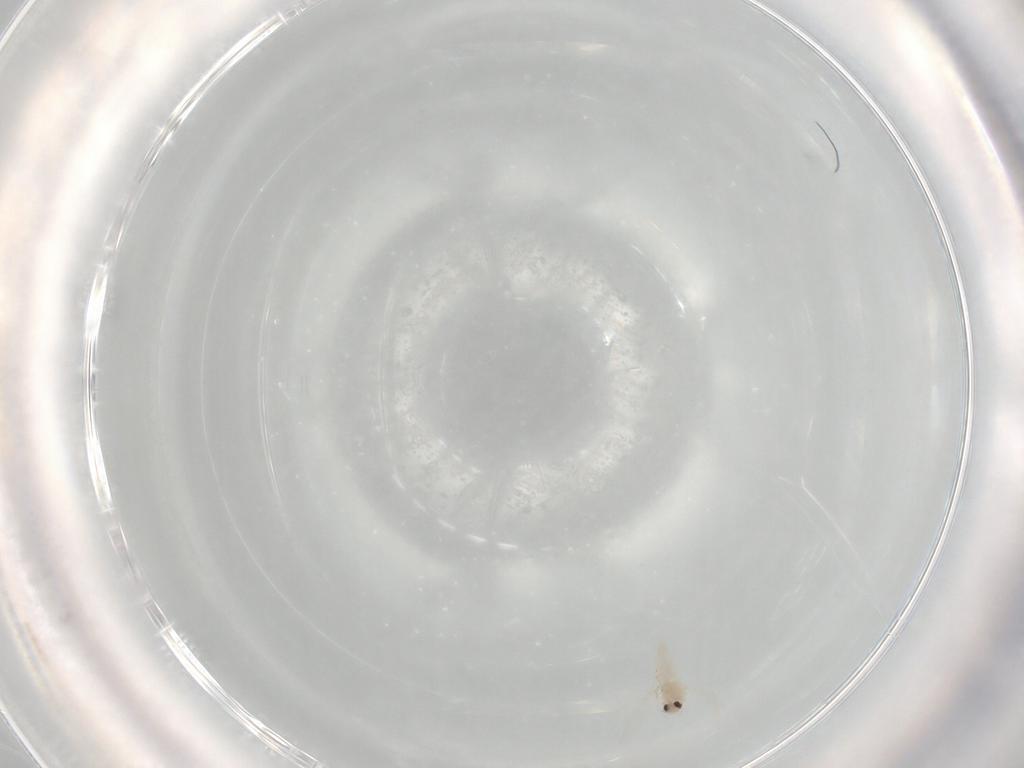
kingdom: Animalia
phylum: Arthropoda
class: Insecta
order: Hemiptera
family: Aleyrodidae
